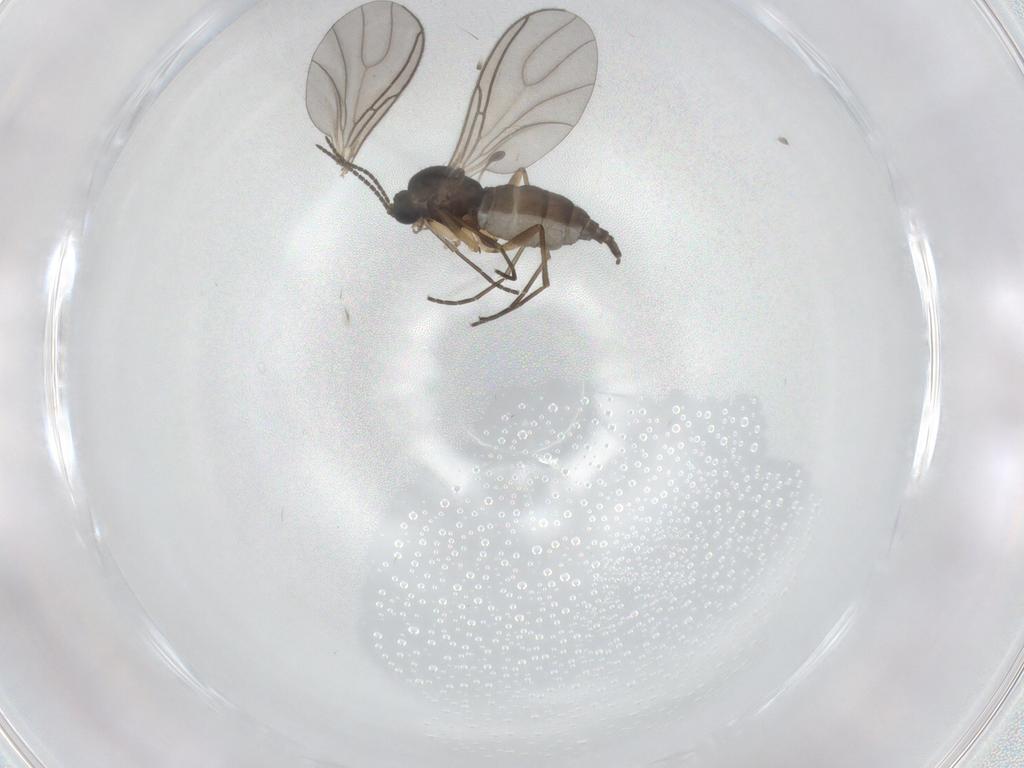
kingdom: Animalia
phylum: Arthropoda
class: Insecta
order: Diptera
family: Sciaridae
